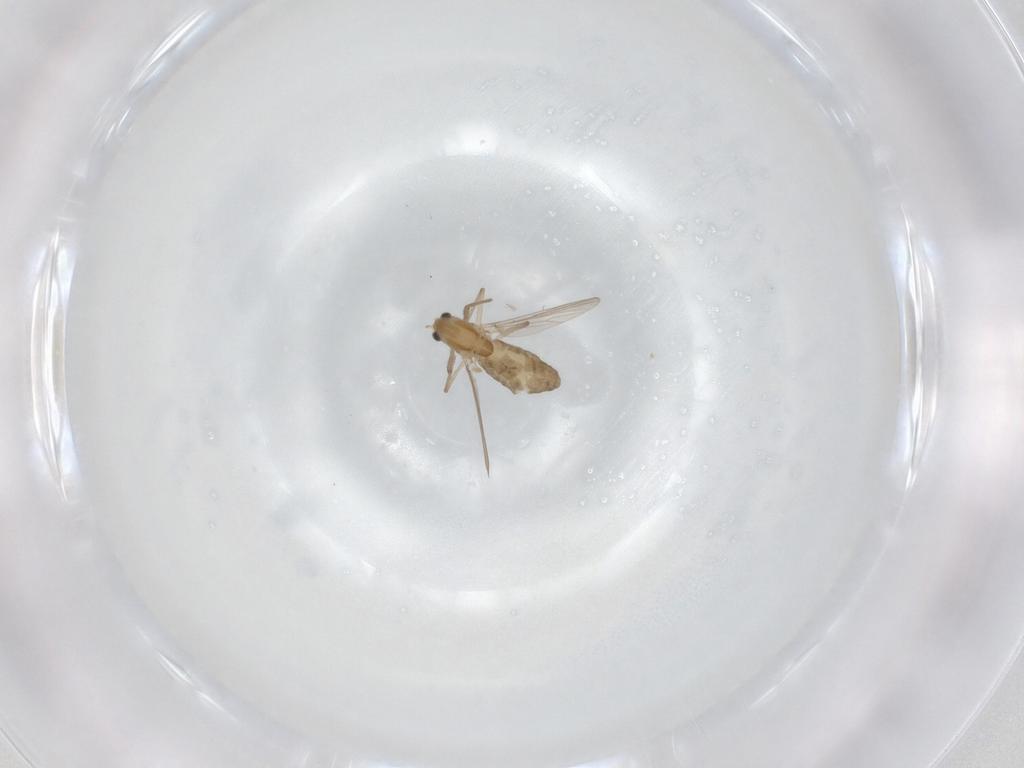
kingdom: Animalia
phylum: Arthropoda
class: Insecta
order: Diptera
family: Chironomidae
